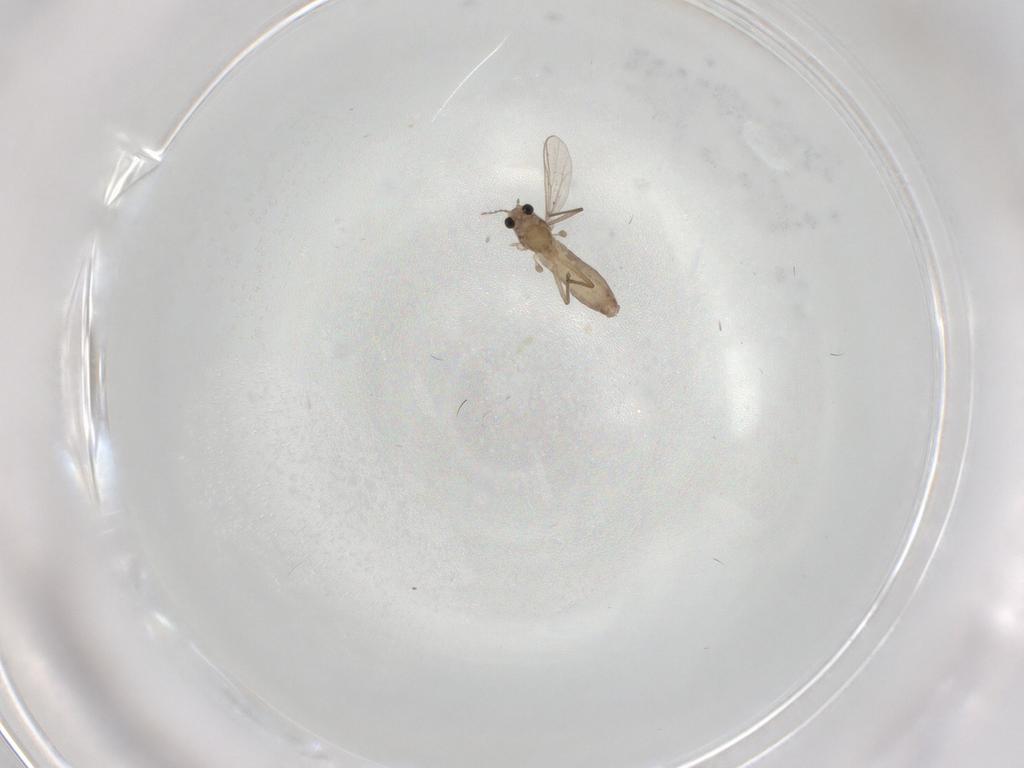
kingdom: Animalia
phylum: Arthropoda
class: Insecta
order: Diptera
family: Chironomidae
